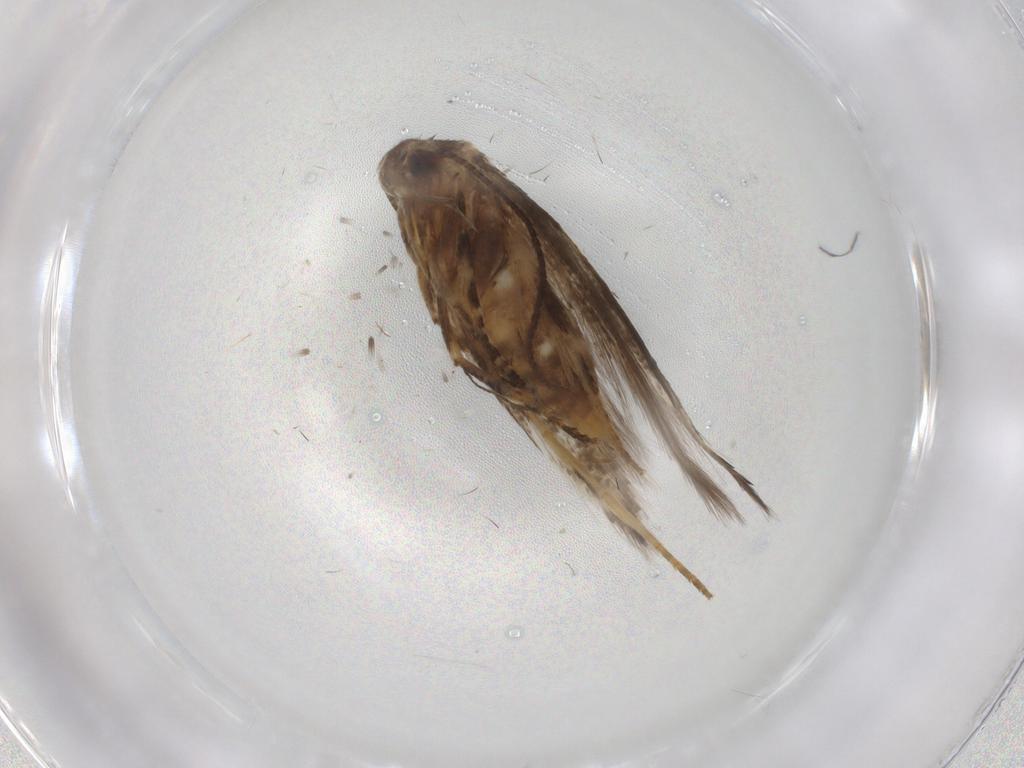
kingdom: Animalia
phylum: Arthropoda
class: Insecta
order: Lepidoptera
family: Elachistidae
